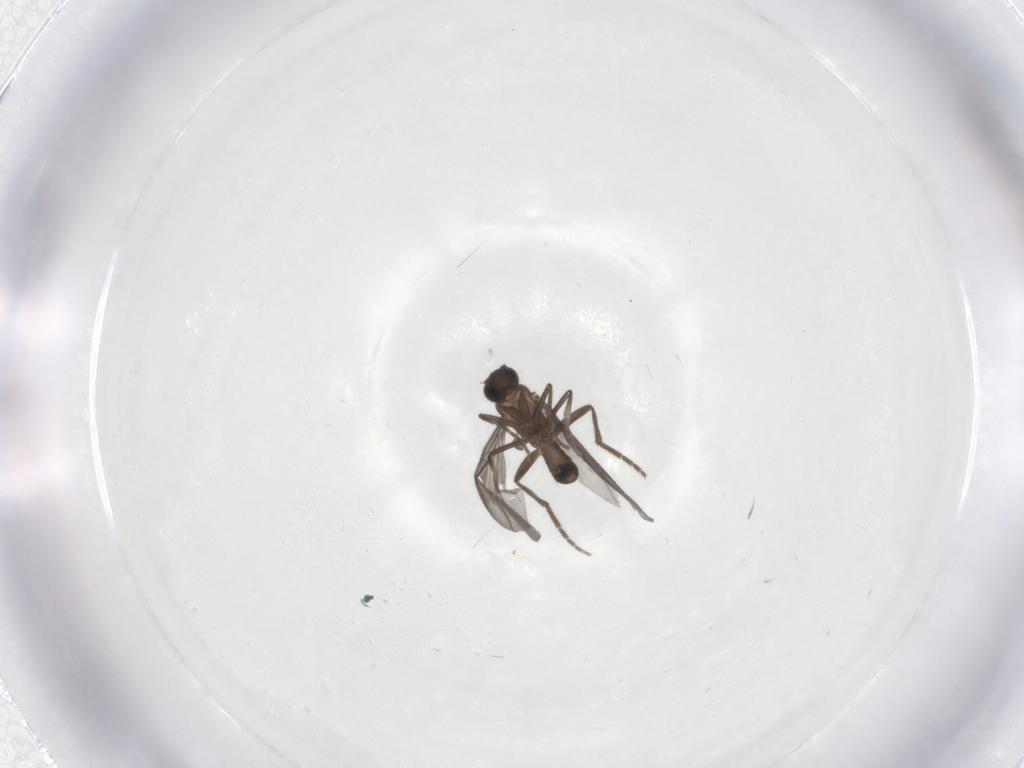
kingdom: Animalia
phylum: Arthropoda
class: Insecta
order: Diptera
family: Phoridae
